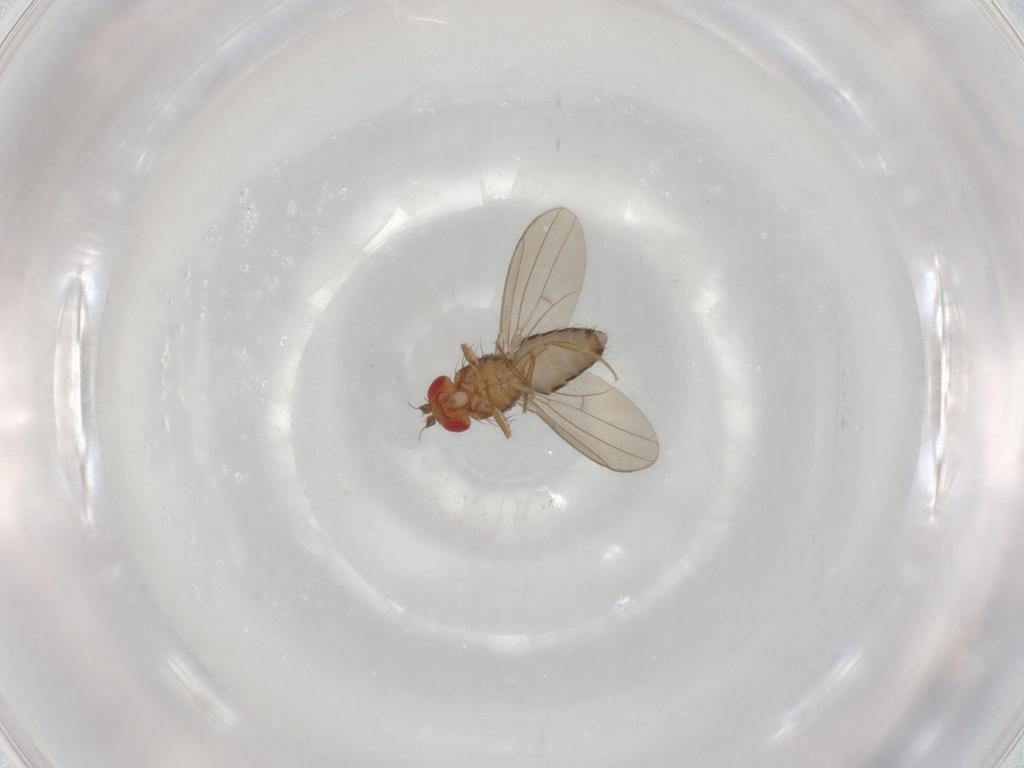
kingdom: Animalia
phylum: Arthropoda
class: Insecta
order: Diptera
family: Drosophilidae
